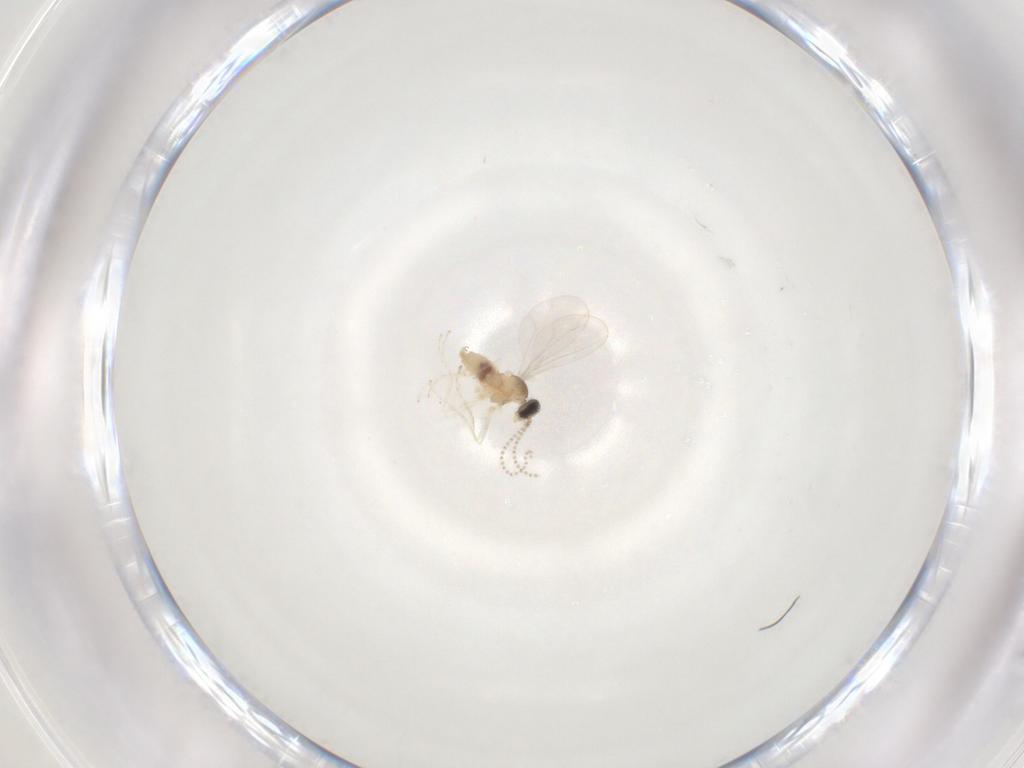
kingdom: Animalia
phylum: Arthropoda
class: Insecta
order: Diptera
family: Cecidomyiidae
